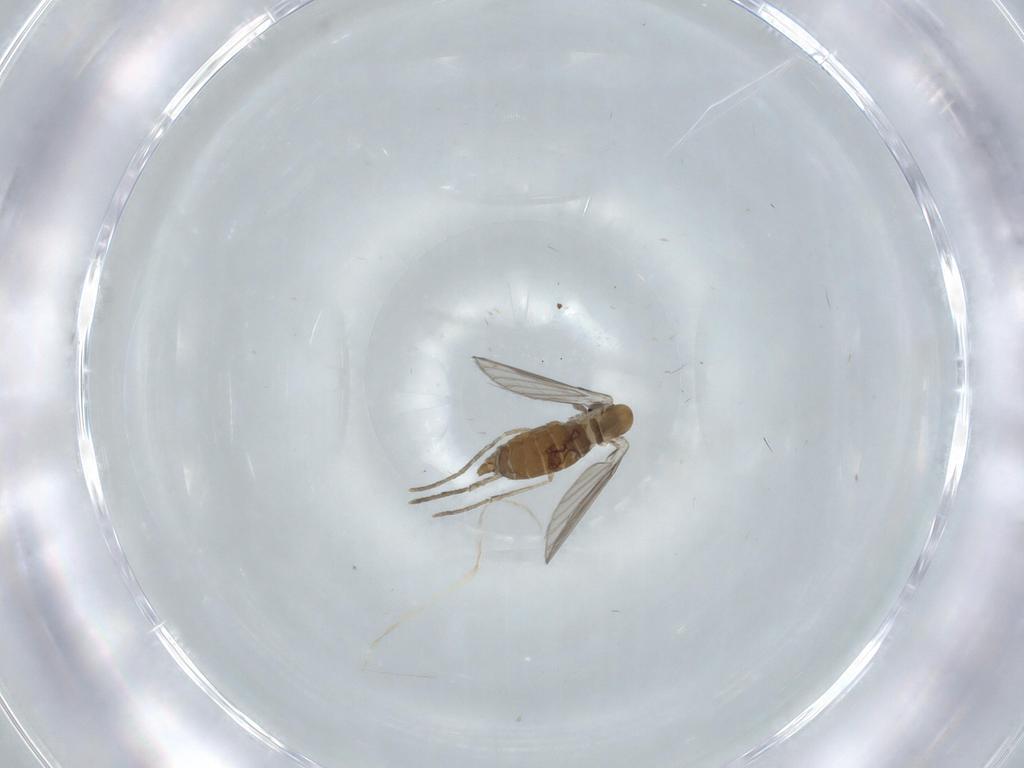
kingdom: Animalia
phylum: Arthropoda
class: Insecta
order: Diptera
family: Psychodidae
